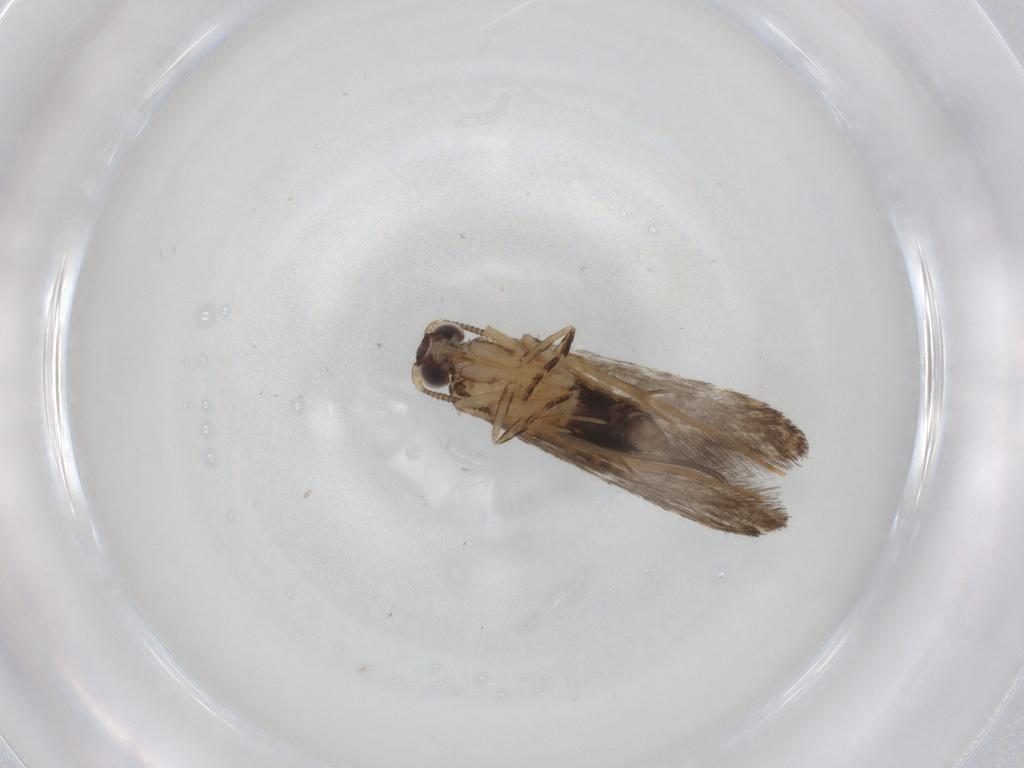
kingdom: Animalia
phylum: Arthropoda
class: Insecta
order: Lepidoptera
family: Tineidae
